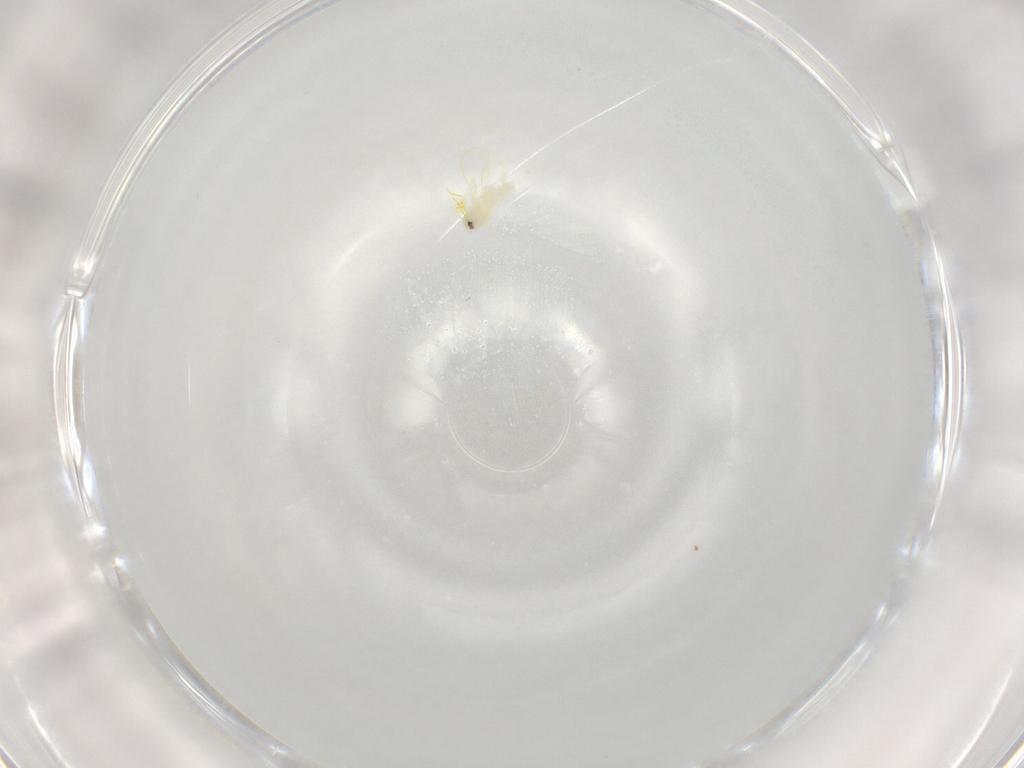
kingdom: Animalia
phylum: Arthropoda
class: Insecta
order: Hemiptera
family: Aleyrodidae
